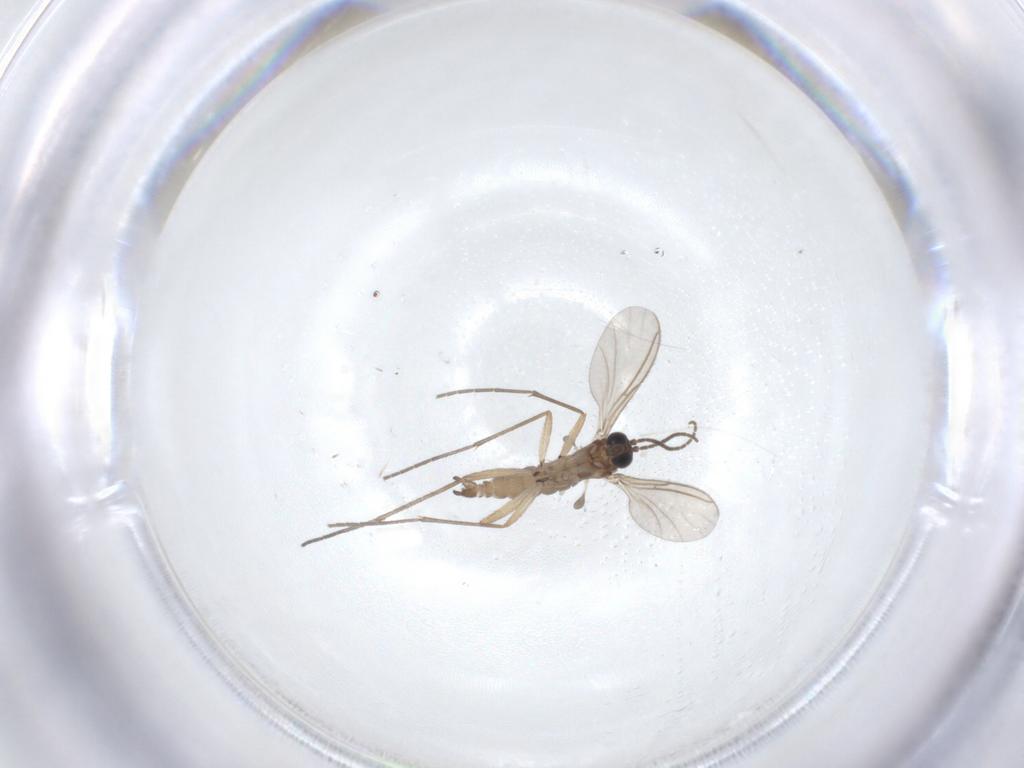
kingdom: Animalia
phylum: Arthropoda
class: Insecta
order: Diptera
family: Sciaridae
